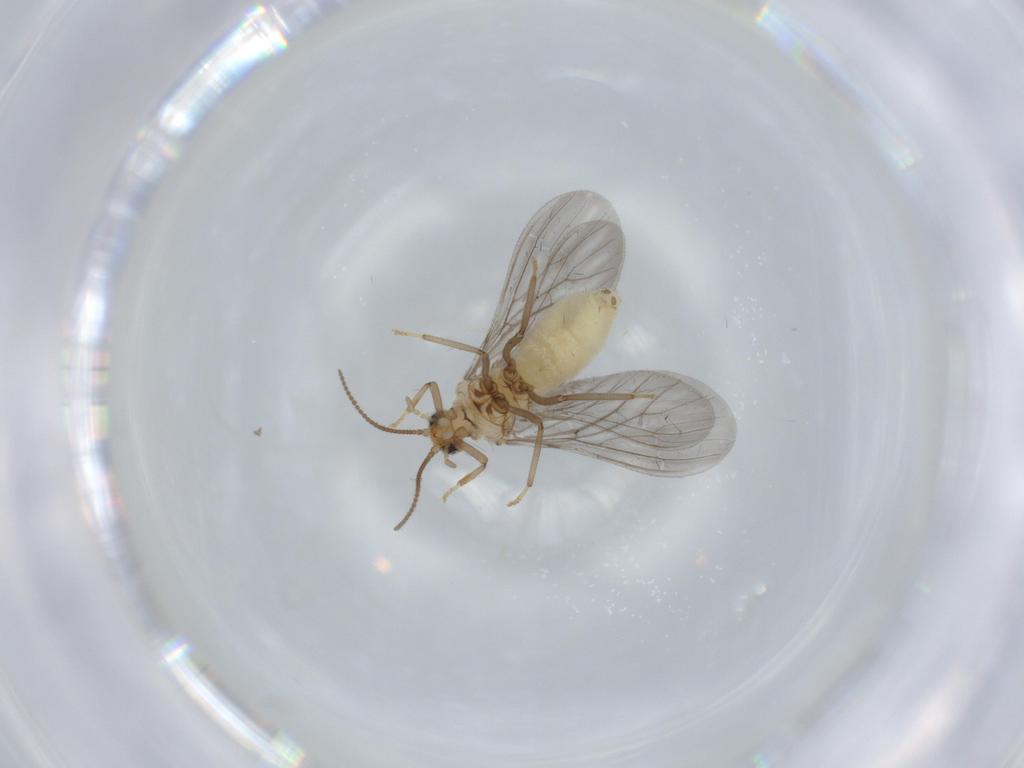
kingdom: Animalia
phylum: Arthropoda
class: Insecta
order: Neuroptera
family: Coniopterygidae
